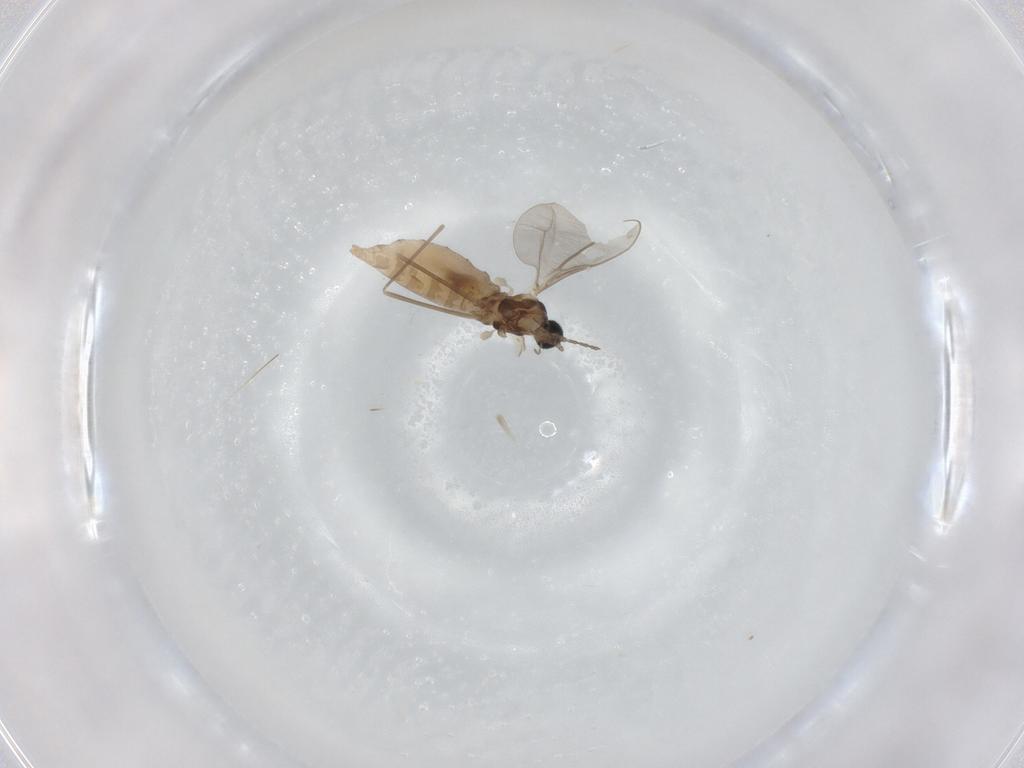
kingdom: Animalia
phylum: Arthropoda
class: Insecta
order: Diptera
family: Cecidomyiidae
